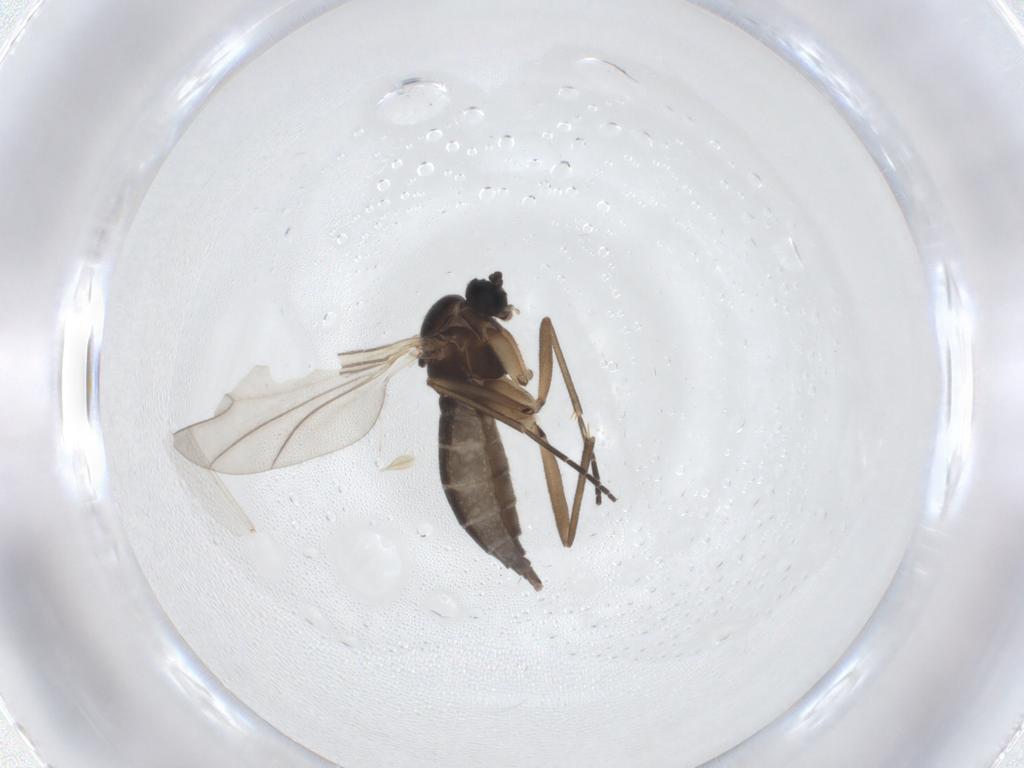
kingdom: Animalia
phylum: Arthropoda
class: Insecta
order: Diptera
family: Sciaridae
